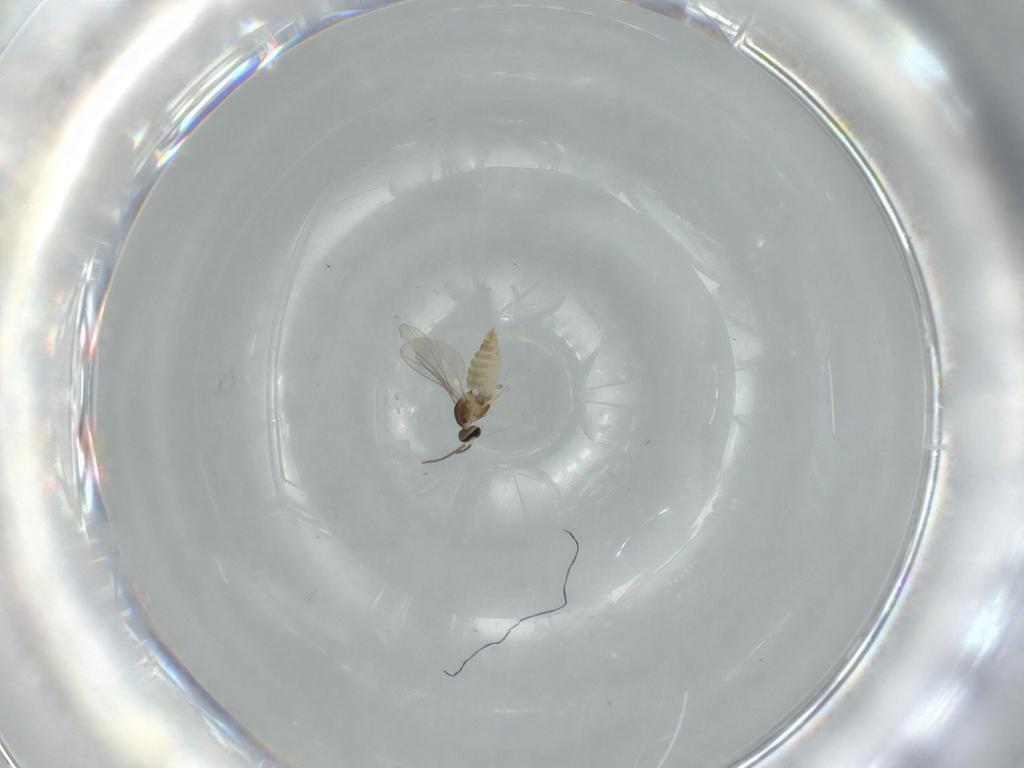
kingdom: Animalia
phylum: Arthropoda
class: Insecta
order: Diptera
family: Cecidomyiidae
